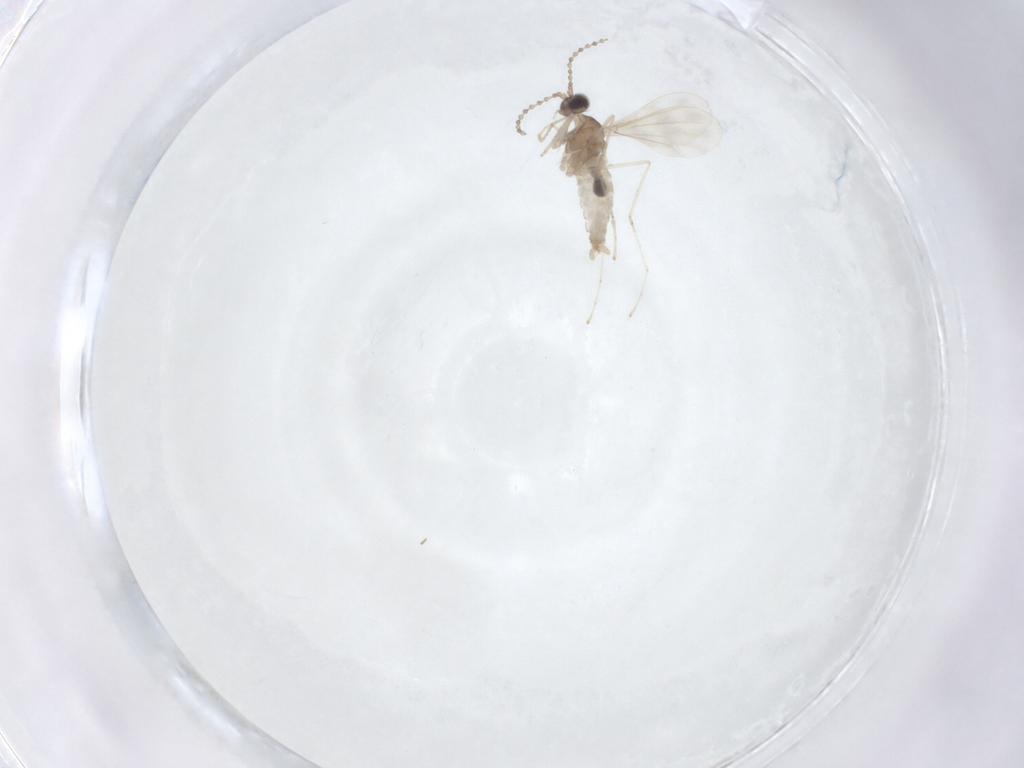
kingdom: Animalia
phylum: Arthropoda
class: Insecta
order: Diptera
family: Cecidomyiidae
